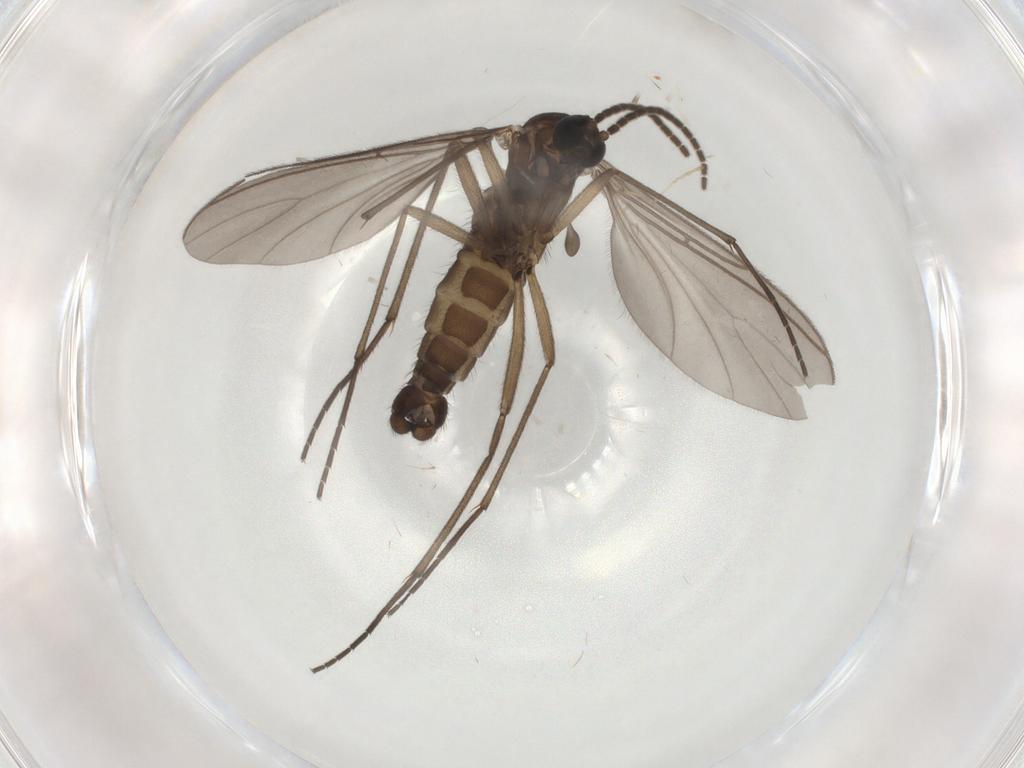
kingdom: Animalia
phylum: Arthropoda
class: Insecta
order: Diptera
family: Sciaridae
